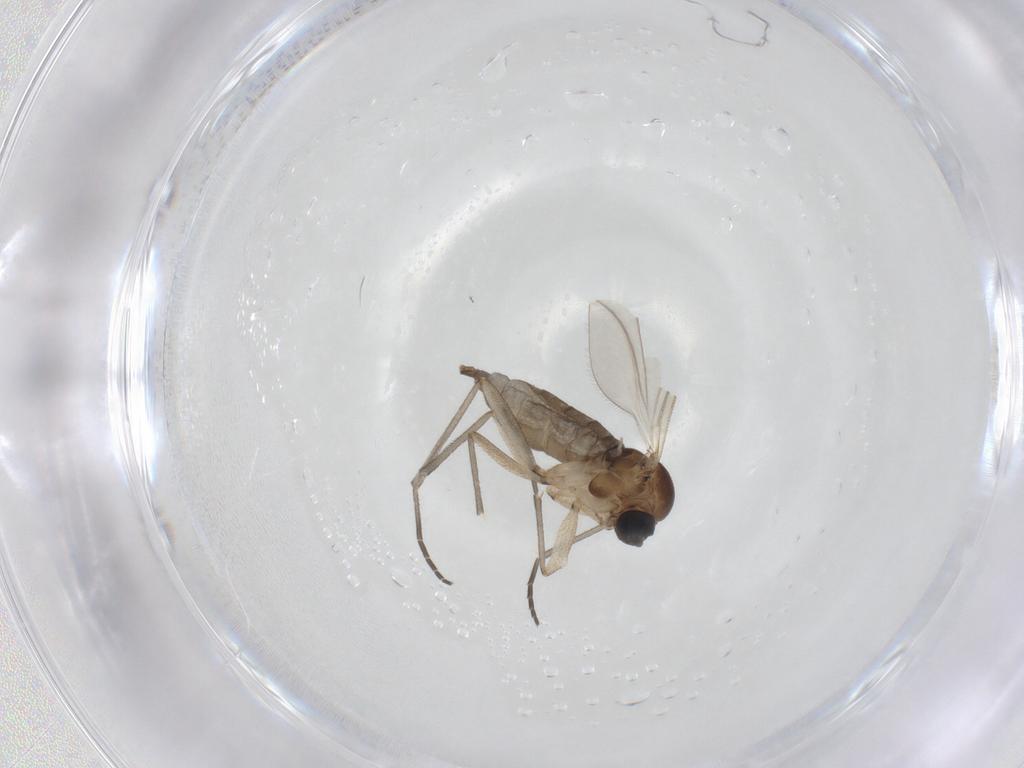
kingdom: Animalia
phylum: Arthropoda
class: Insecta
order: Diptera
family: Sciaridae
